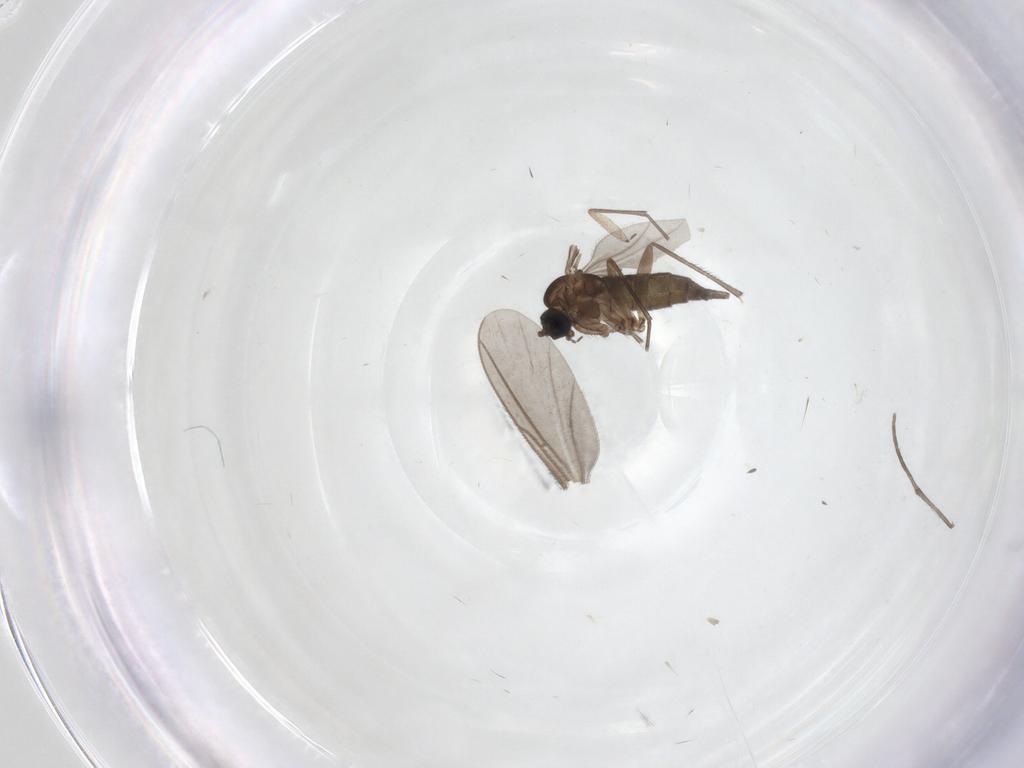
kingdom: Animalia
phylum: Arthropoda
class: Insecta
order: Diptera
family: Sciaridae
